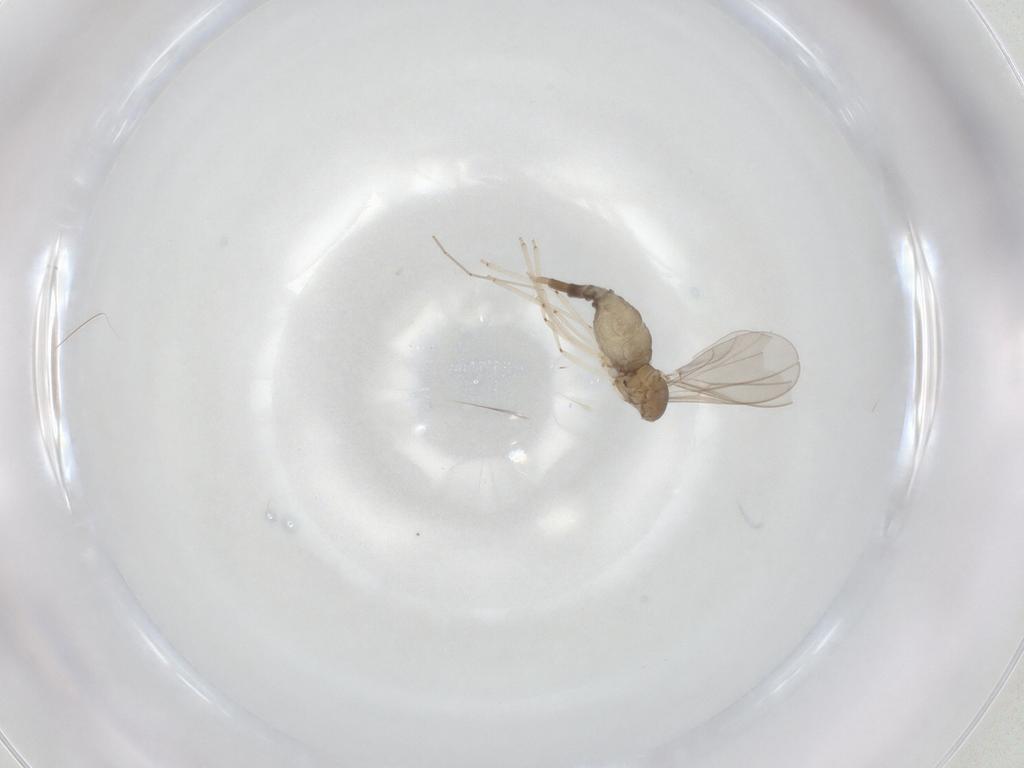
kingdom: Animalia
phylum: Arthropoda
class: Insecta
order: Diptera
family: Cecidomyiidae
